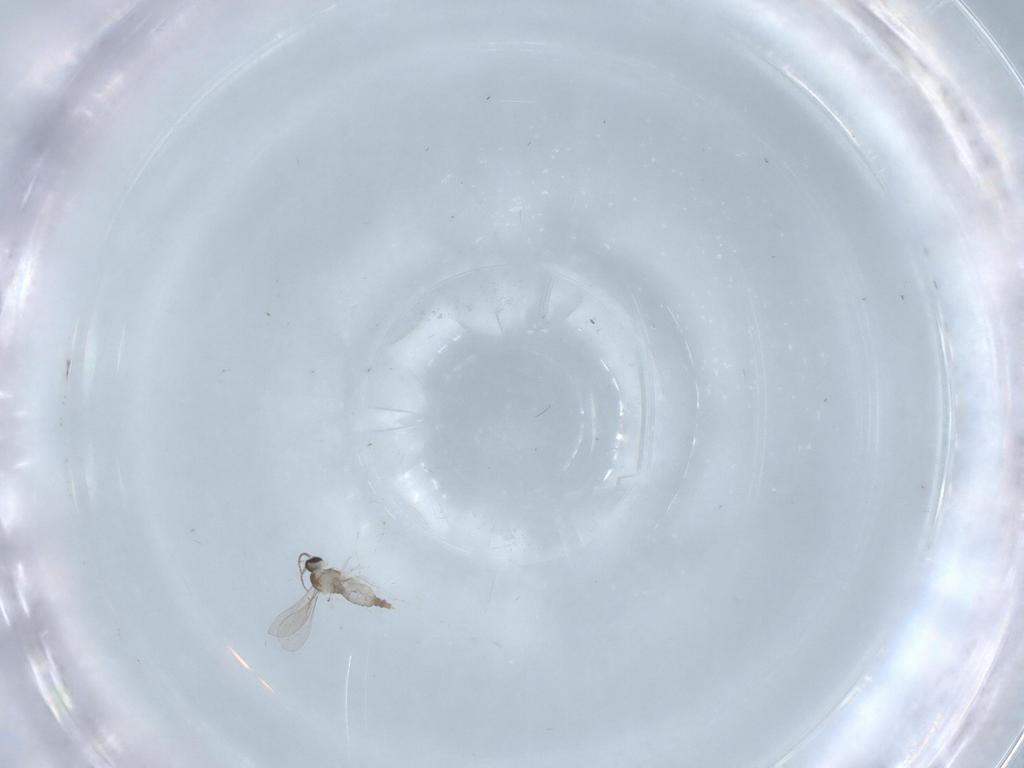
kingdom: Animalia
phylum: Arthropoda
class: Insecta
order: Diptera
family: Cecidomyiidae
